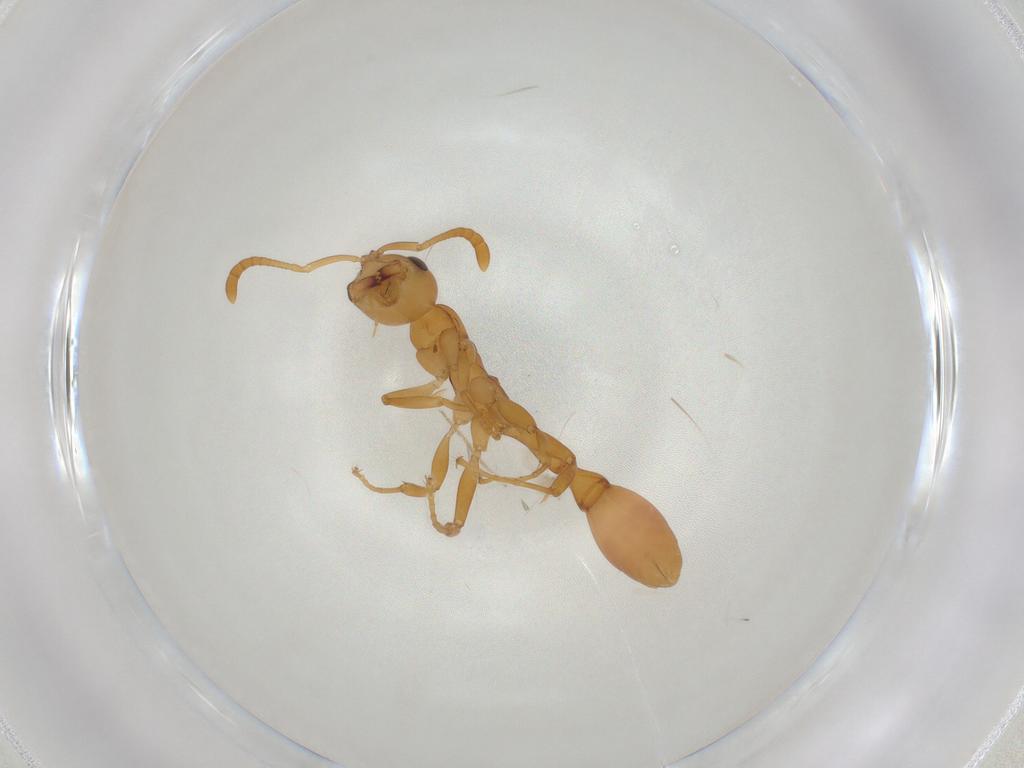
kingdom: Animalia
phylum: Arthropoda
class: Insecta
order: Hymenoptera
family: Formicidae
